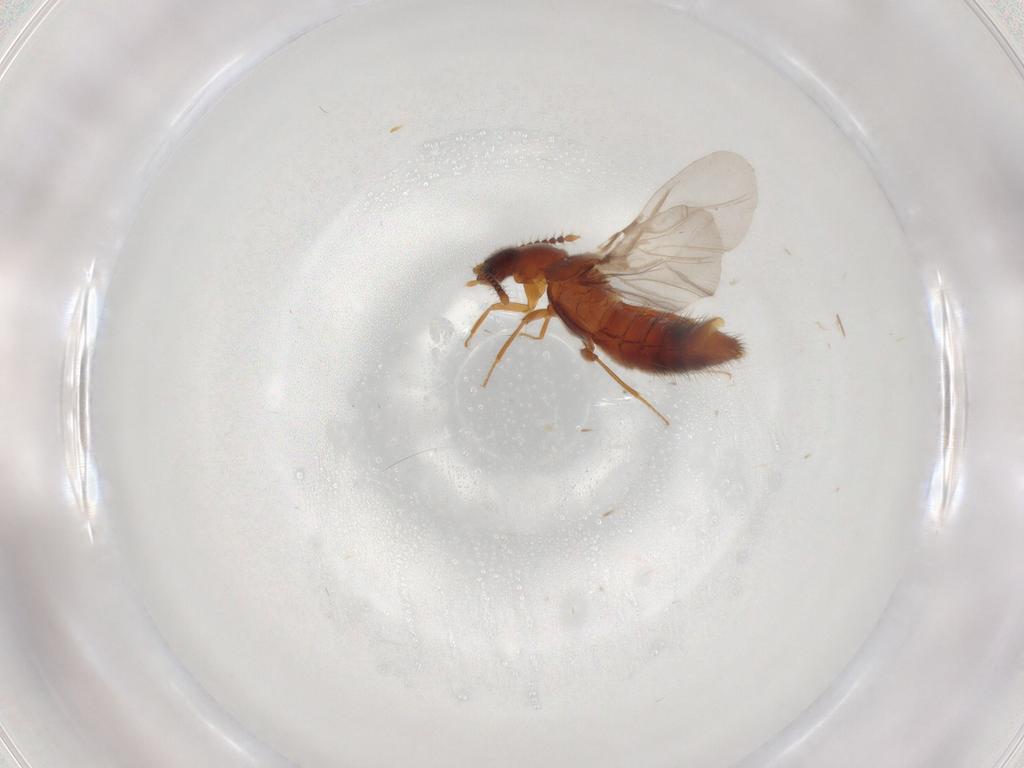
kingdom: Animalia
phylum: Arthropoda
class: Insecta
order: Coleoptera
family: Staphylinidae
